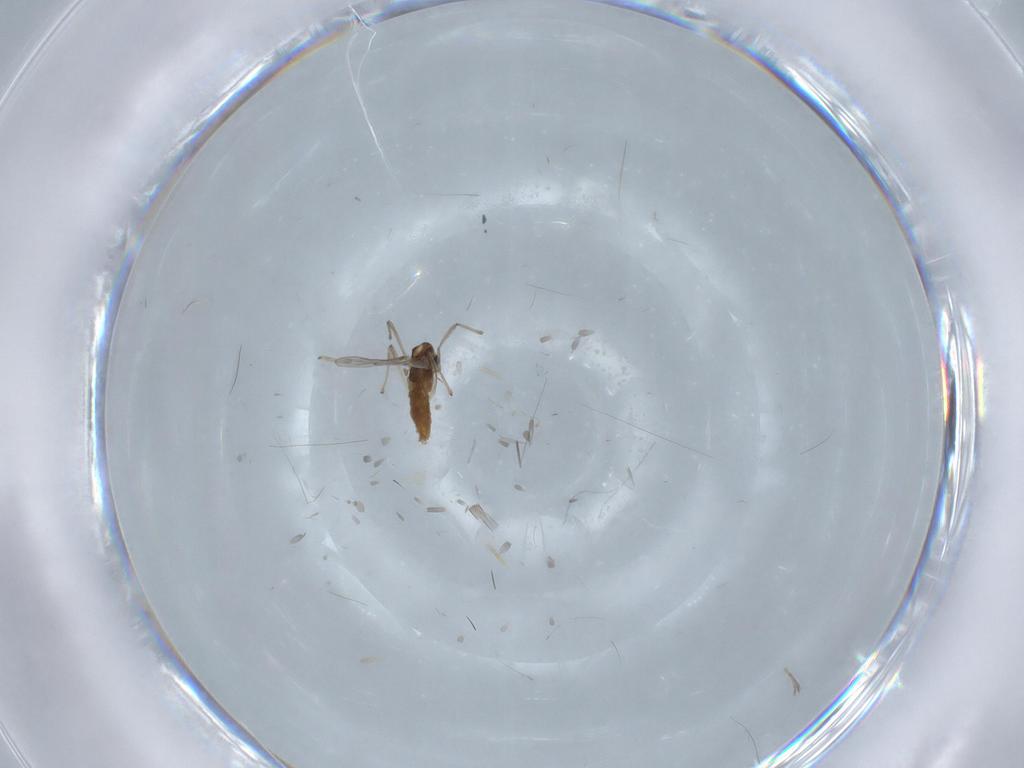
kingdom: Animalia
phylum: Arthropoda
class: Insecta
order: Diptera
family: Chironomidae
